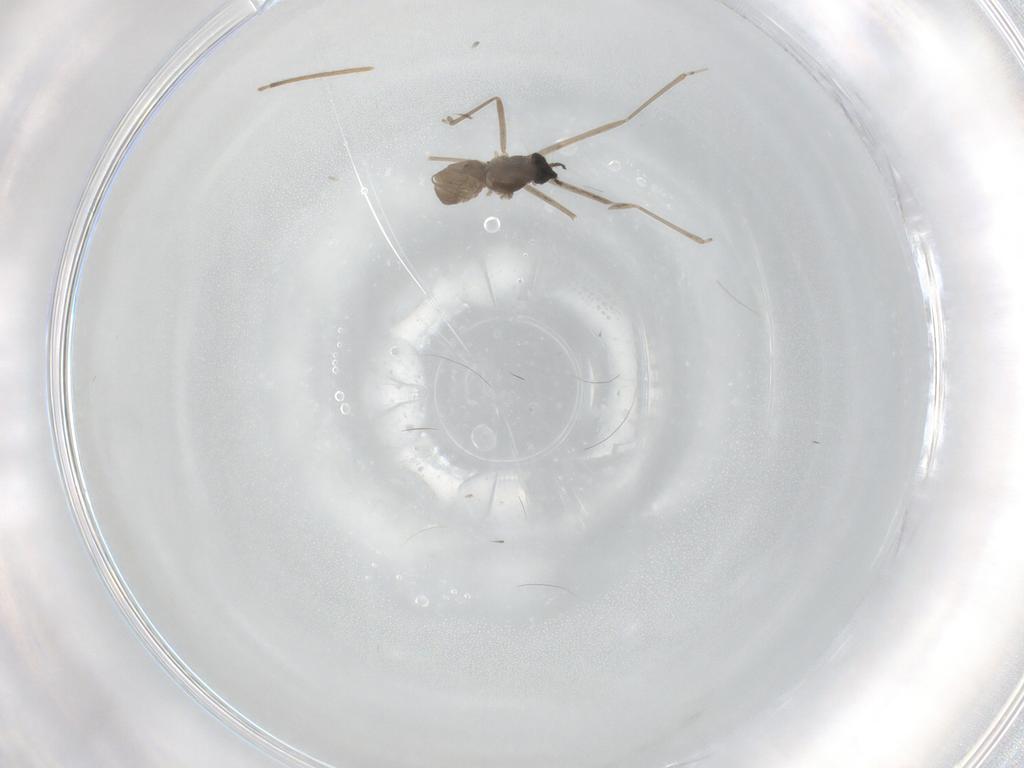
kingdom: Animalia
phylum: Arthropoda
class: Insecta
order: Diptera
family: Cecidomyiidae
